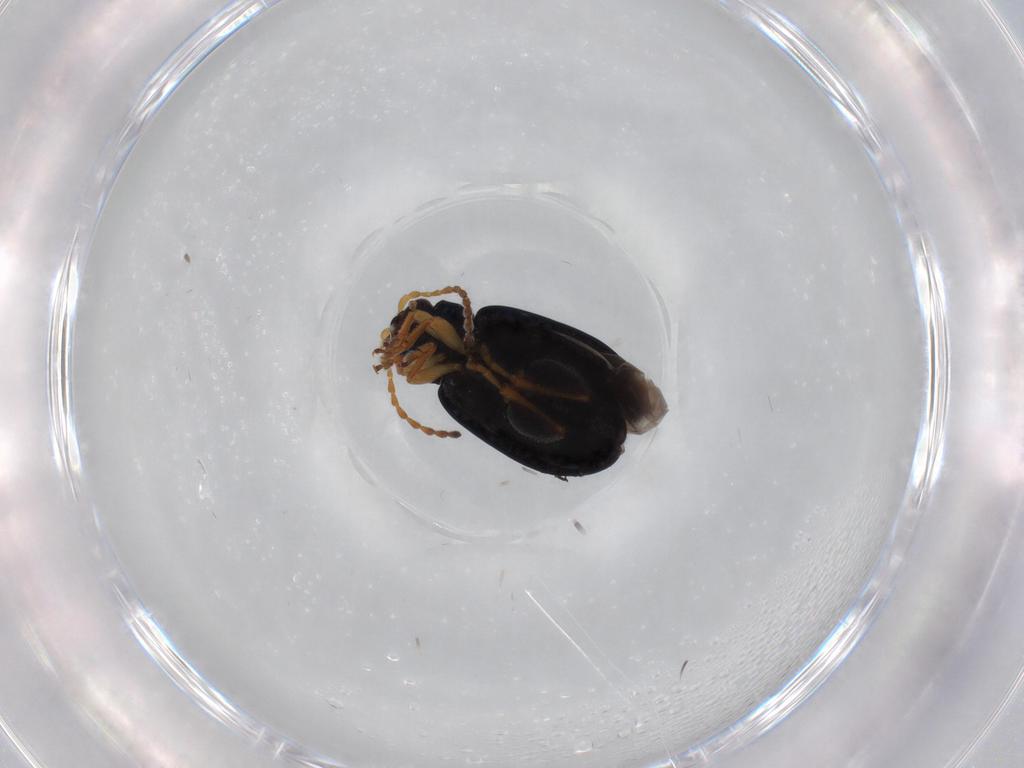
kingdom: Animalia
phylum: Arthropoda
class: Insecta
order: Coleoptera
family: Chrysomelidae
